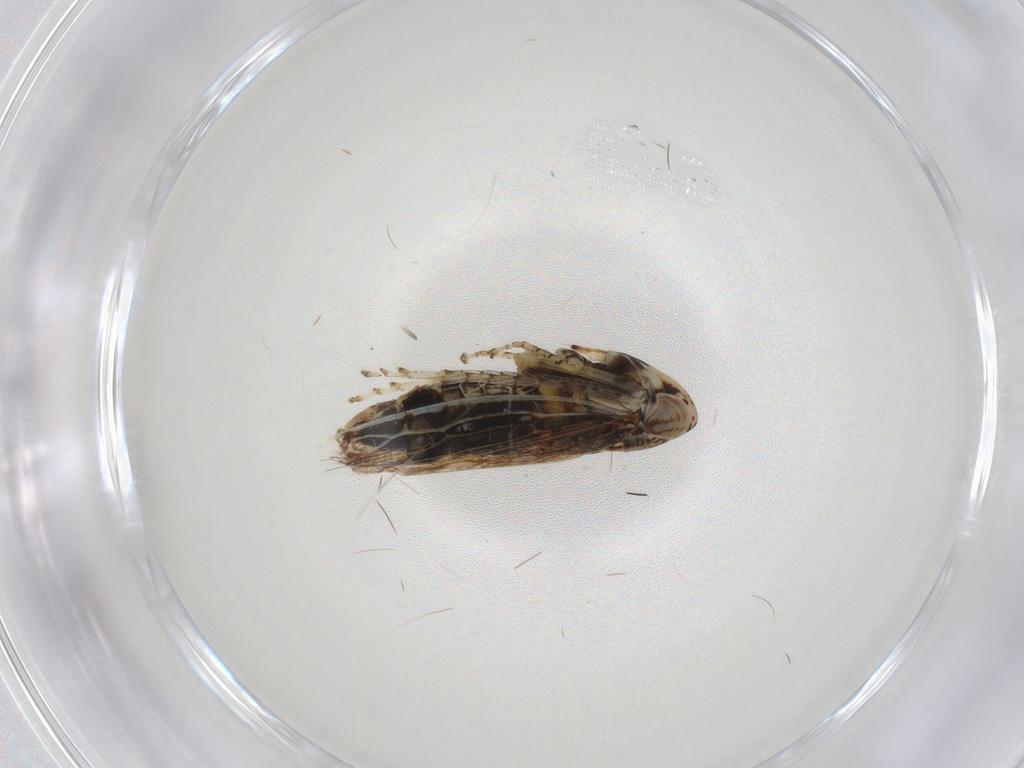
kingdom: Animalia
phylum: Arthropoda
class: Insecta
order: Hemiptera
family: Cicadellidae
